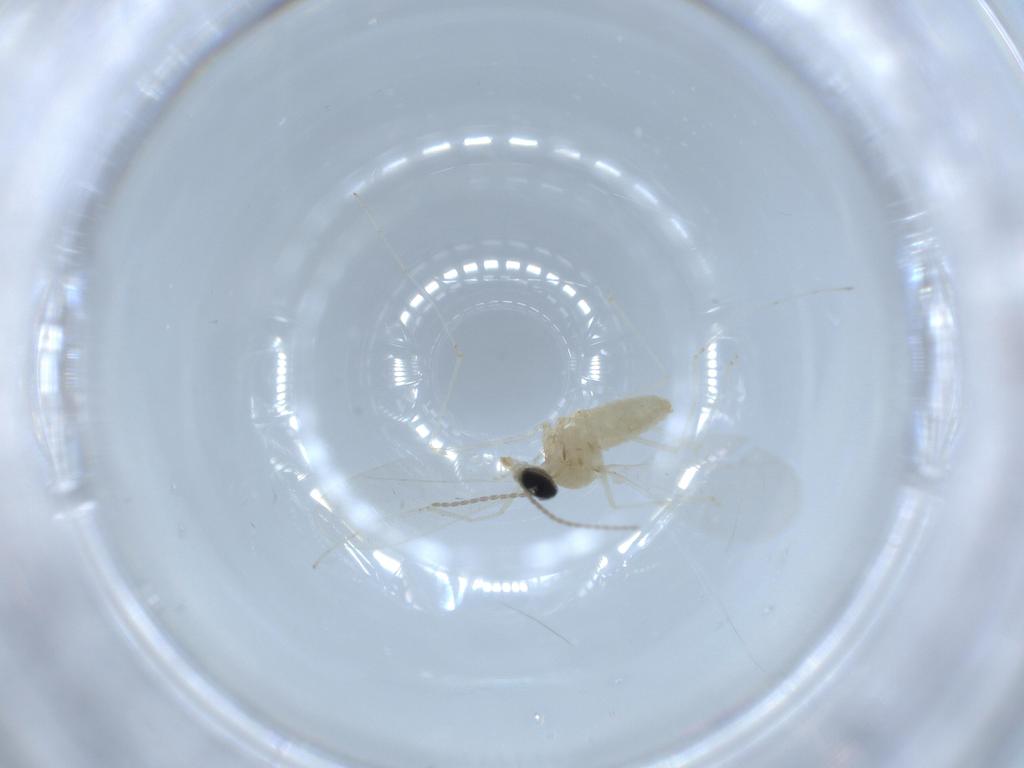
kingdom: Animalia
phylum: Arthropoda
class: Insecta
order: Diptera
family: Cecidomyiidae
